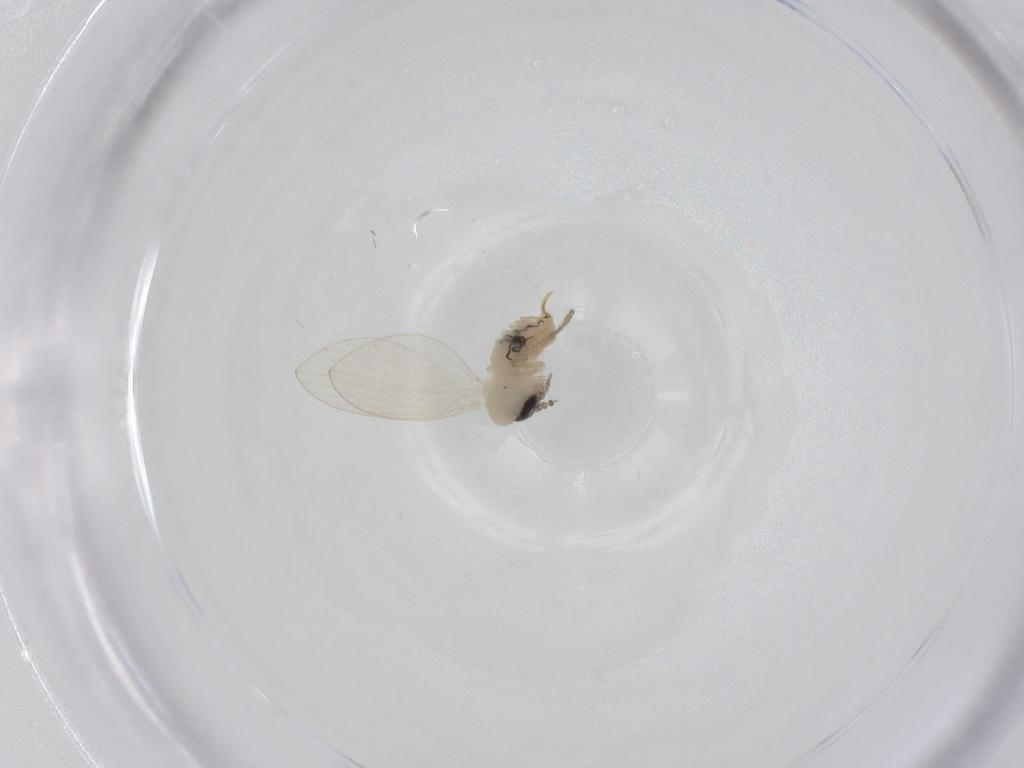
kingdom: Animalia
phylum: Arthropoda
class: Insecta
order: Diptera
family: Psychodidae
